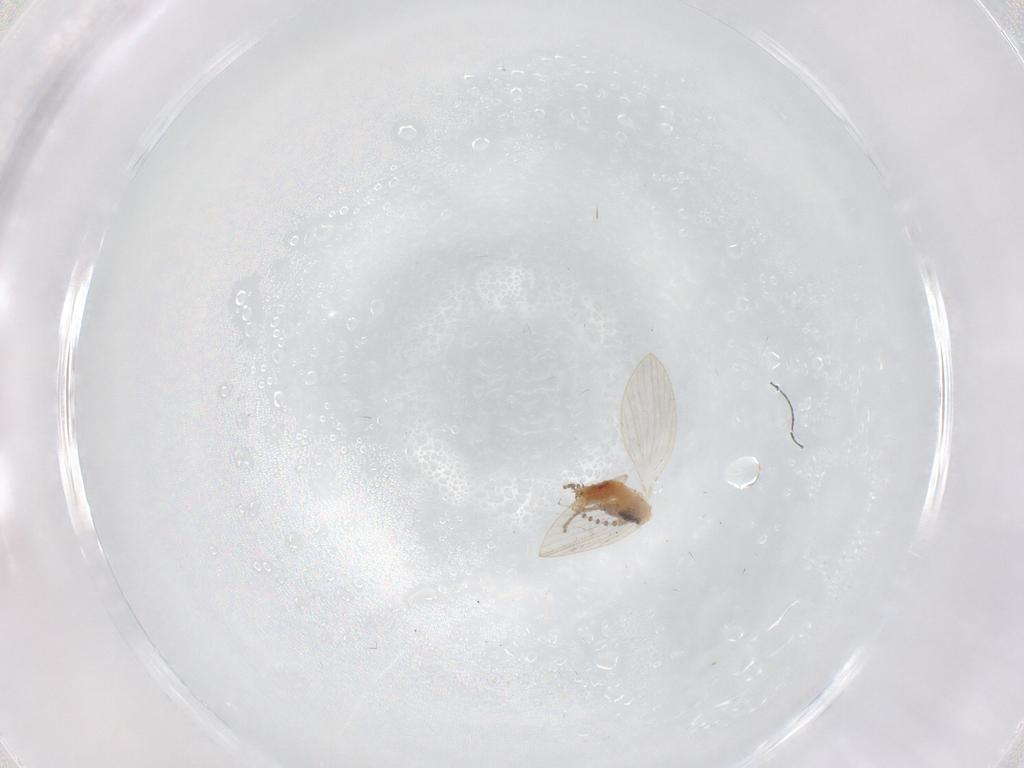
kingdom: Animalia
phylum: Arthropoda
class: Insecta
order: Diptera
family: Psychodidae
